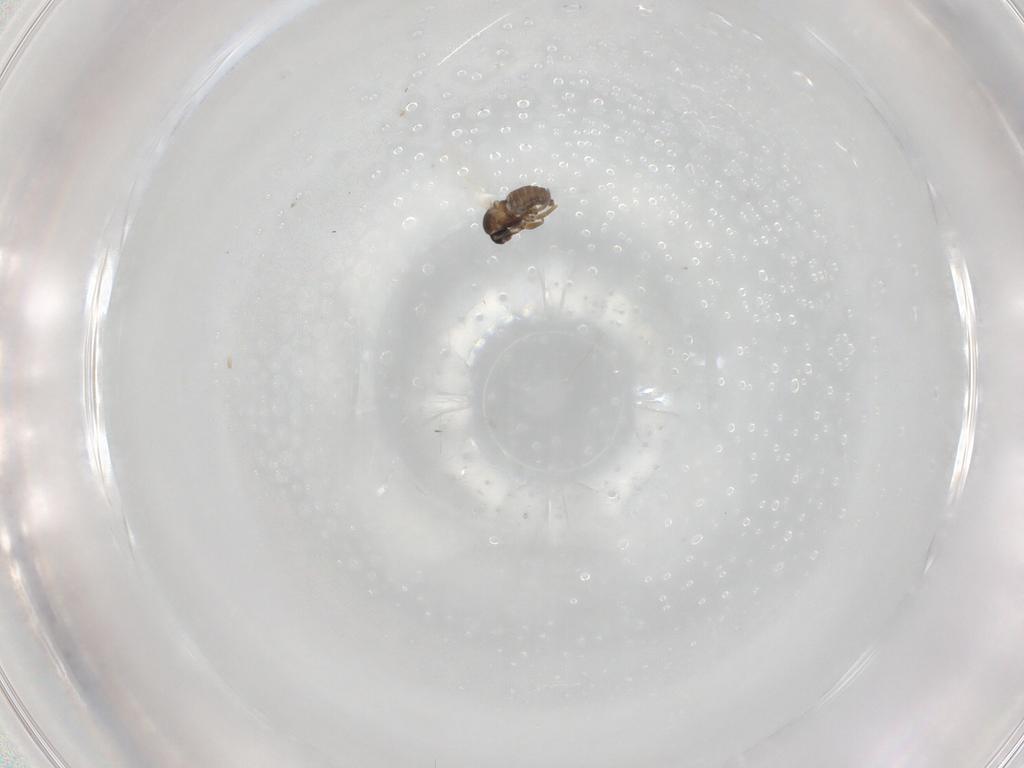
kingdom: Animalia
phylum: Arthropoda
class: Insecta
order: Diptera
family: Cecidomyiidae
